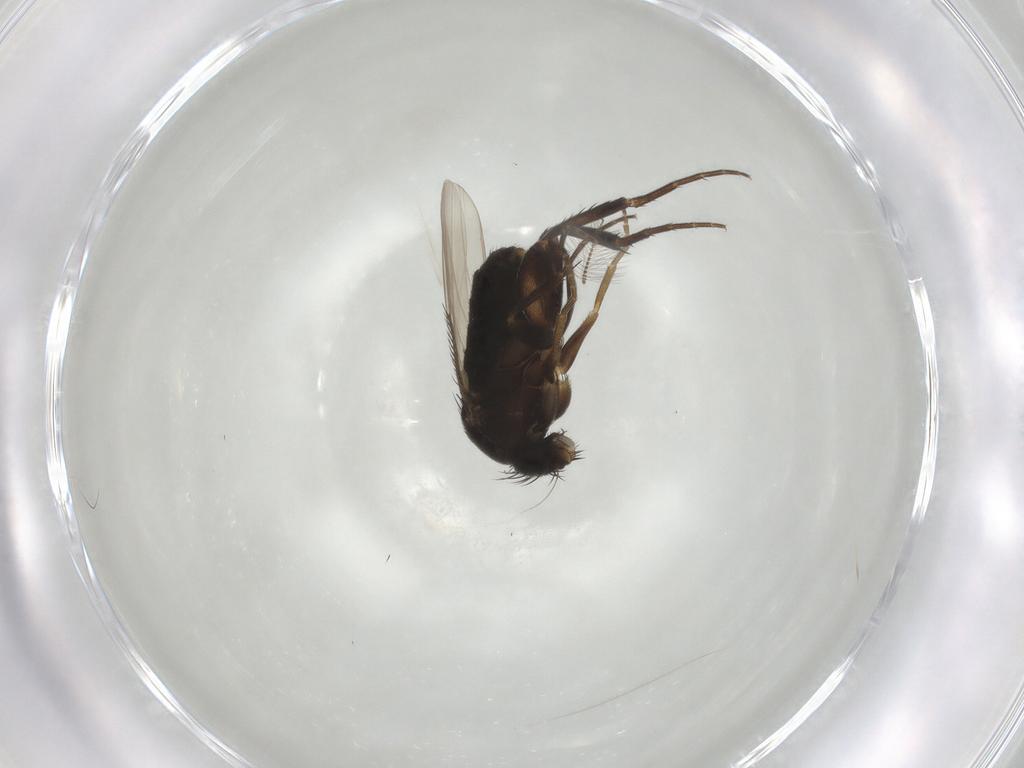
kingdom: Animalia
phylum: Arthropoda
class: Insecta
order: Diptera
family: Phoridae
